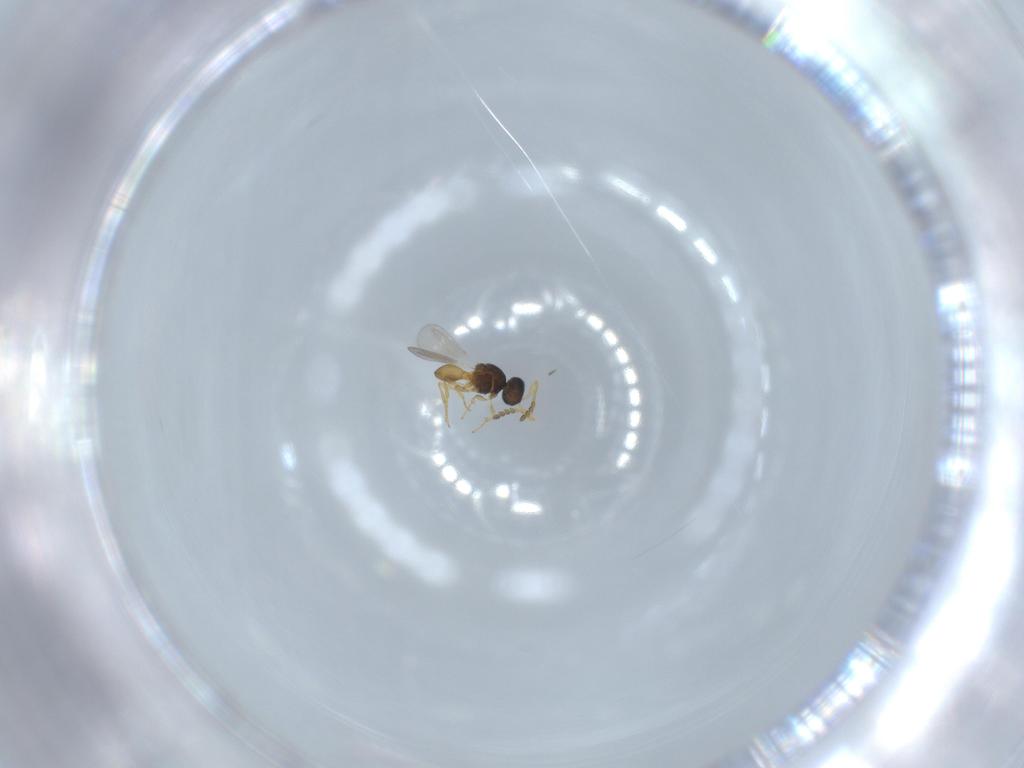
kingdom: Animalia
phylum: Arthropoda
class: Insecta
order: Hymenoptera
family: Platygastridae
